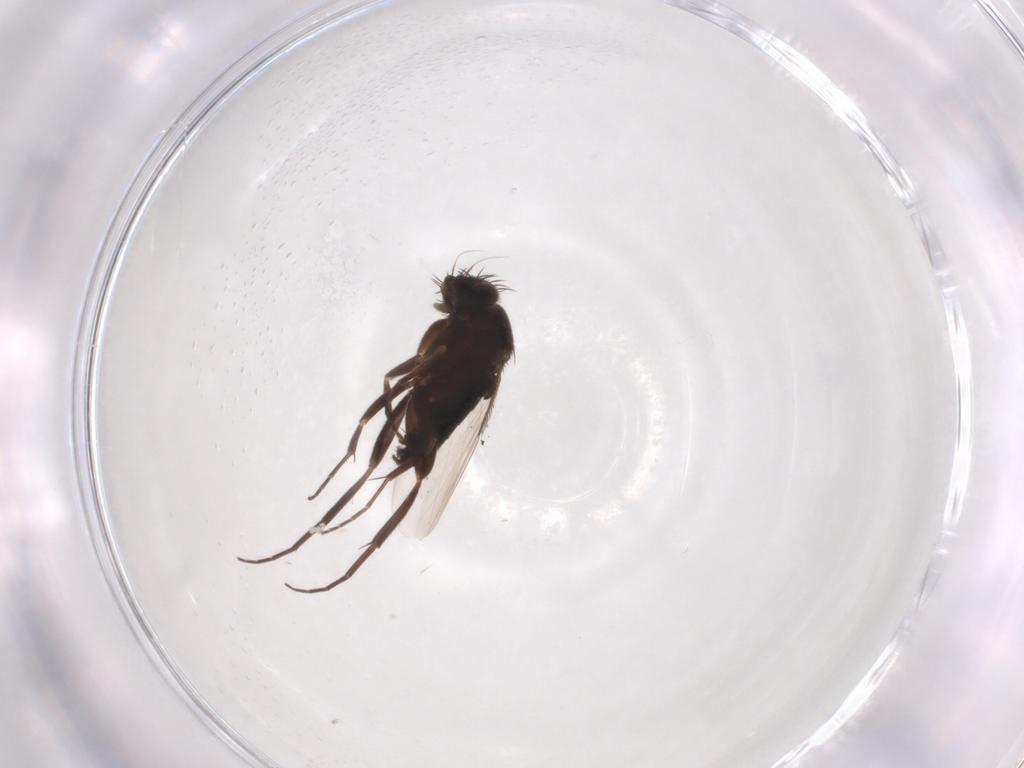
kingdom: Animalia
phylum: Arthropoda
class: Insecta
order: Diptera
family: Phoridae
